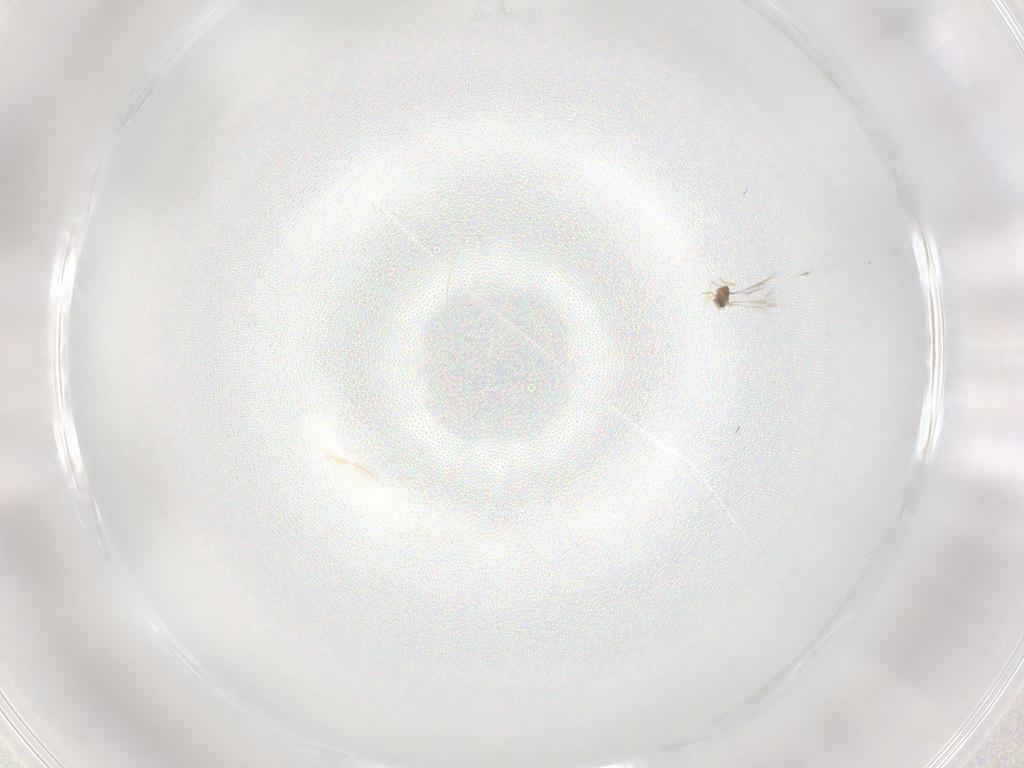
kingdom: Animalia
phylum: Arthropoda
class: Insecta
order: Hymenoptera
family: Mymaridae
